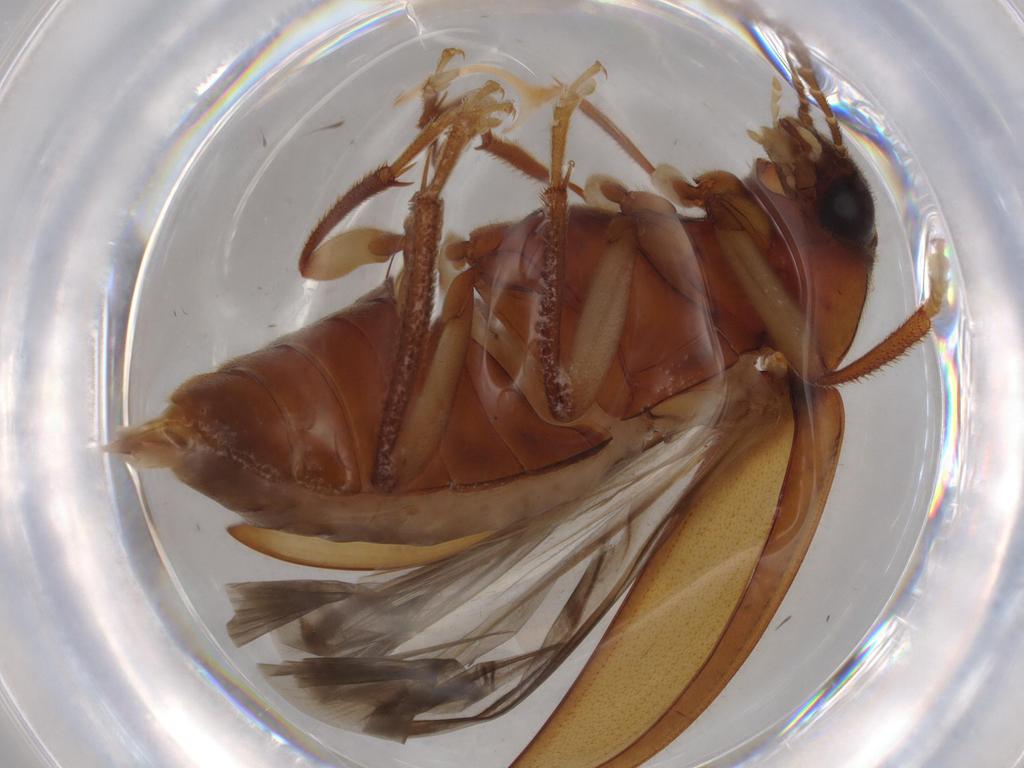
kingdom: Animalia
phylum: Arthropoda
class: Insecta
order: Coleoptera
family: Ptilodactylidae
